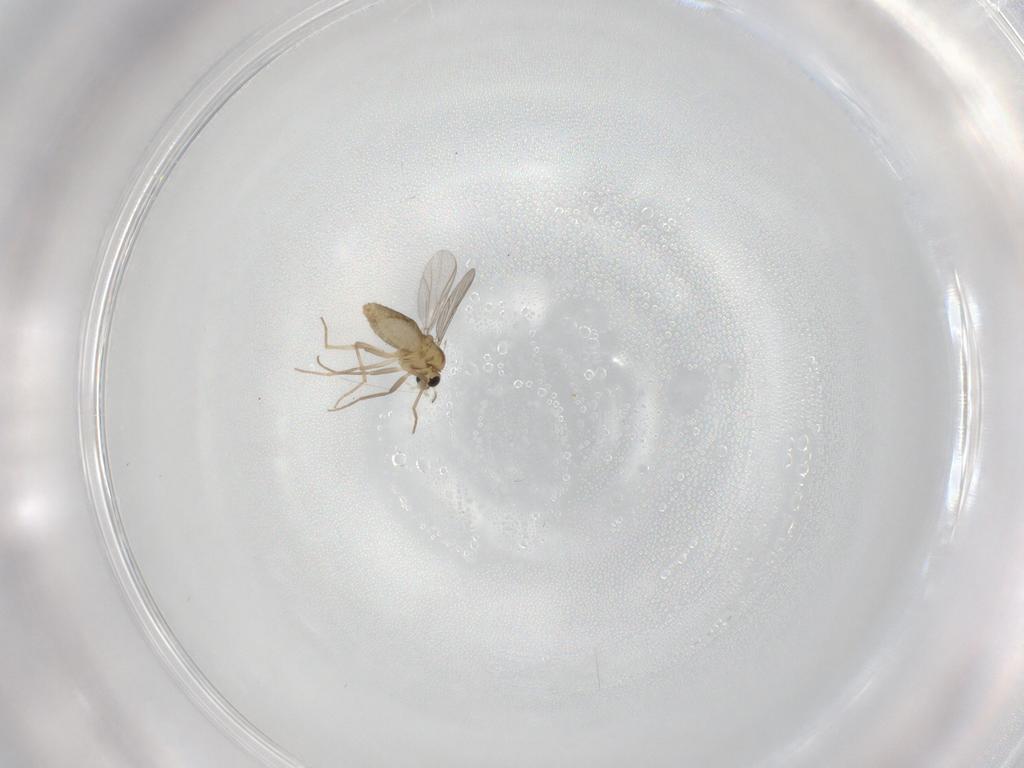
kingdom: Animalia
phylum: Arthropoda
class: Insecta
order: Diptera
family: Chironomidae
